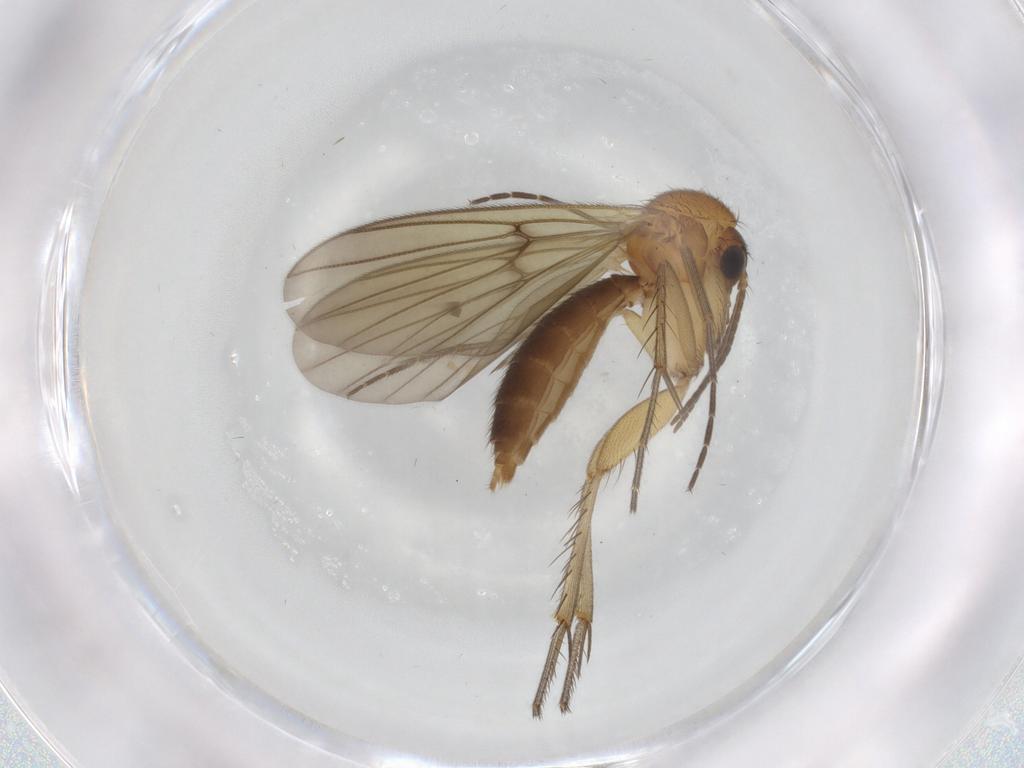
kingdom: Animalia
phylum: Arthropoda
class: Insecta
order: Diptera
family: Mycetophilidae
